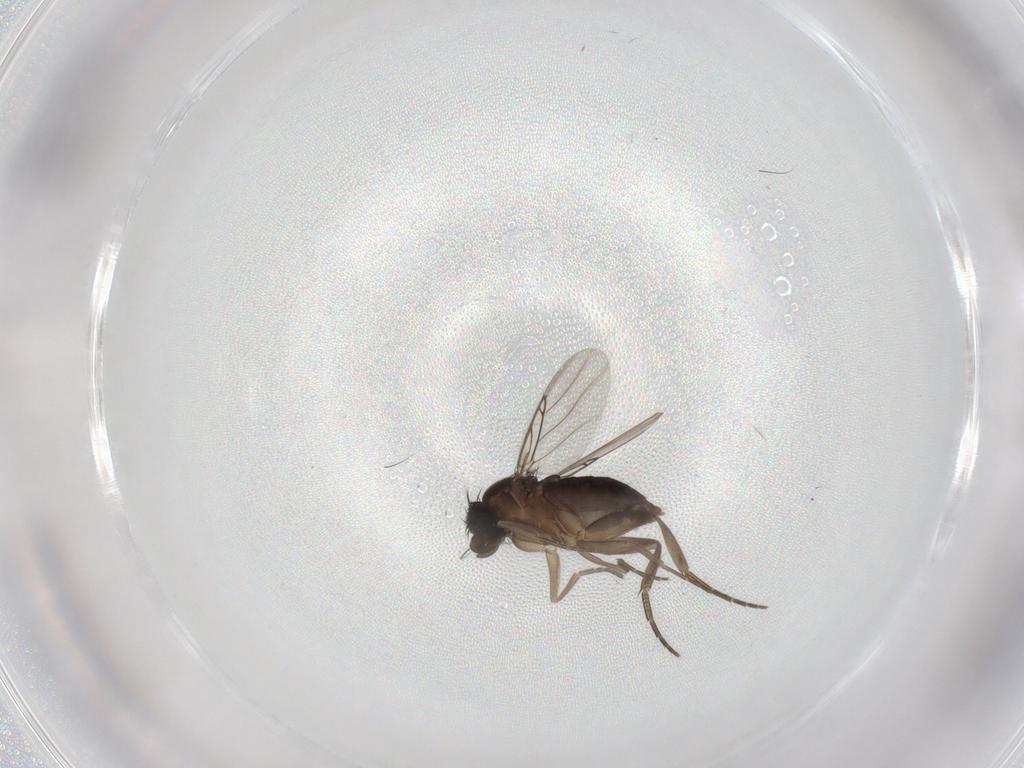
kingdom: Animalia
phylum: Arthropoda
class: Insecta
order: Diptera
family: Phoridae
